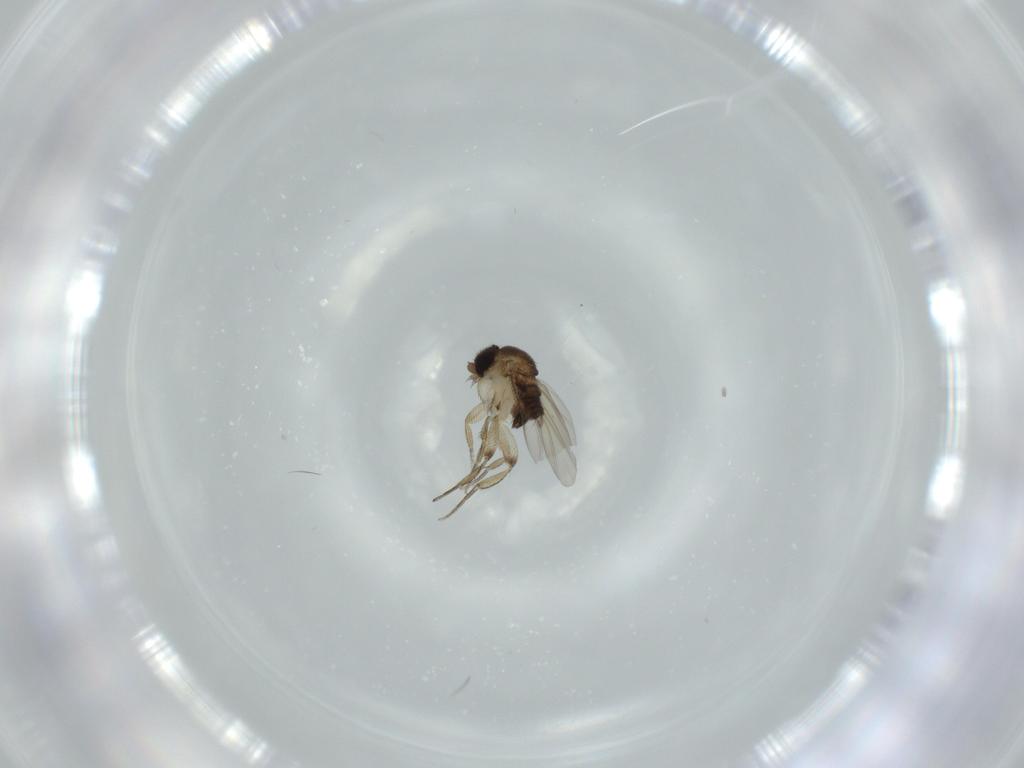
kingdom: Animalia
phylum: Arthropoda
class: Insecta
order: Diptera
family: Phoridae
